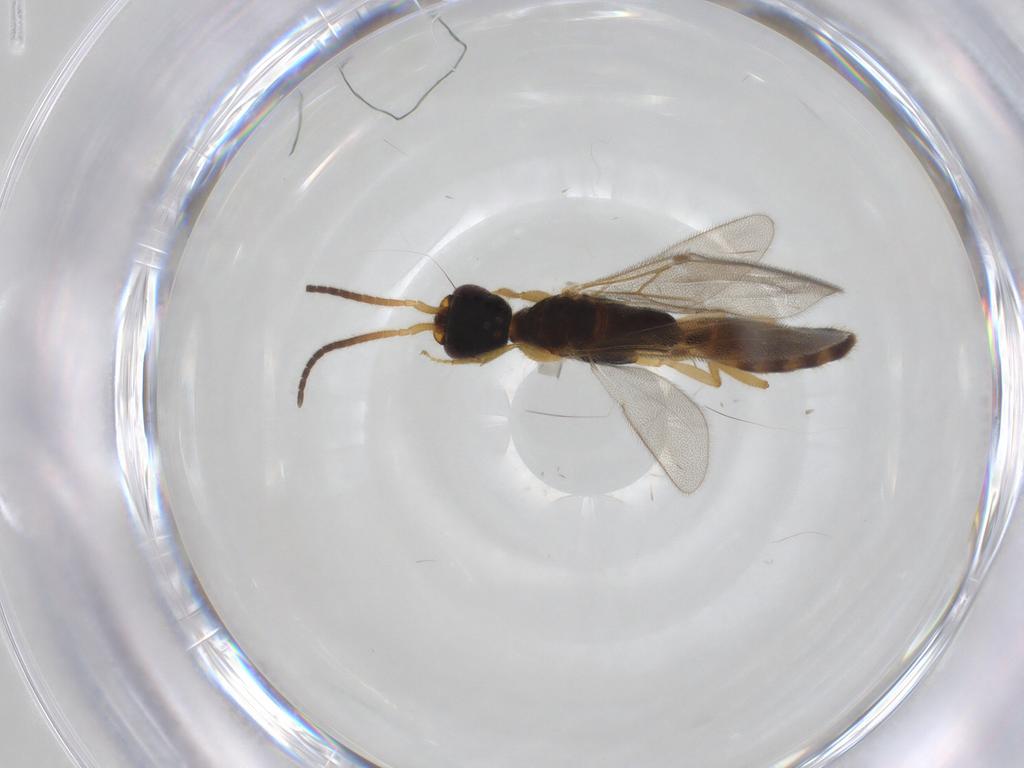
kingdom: Animalia
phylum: Arthropoda
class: Insecta
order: Hymenoptera
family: Bethylidae
